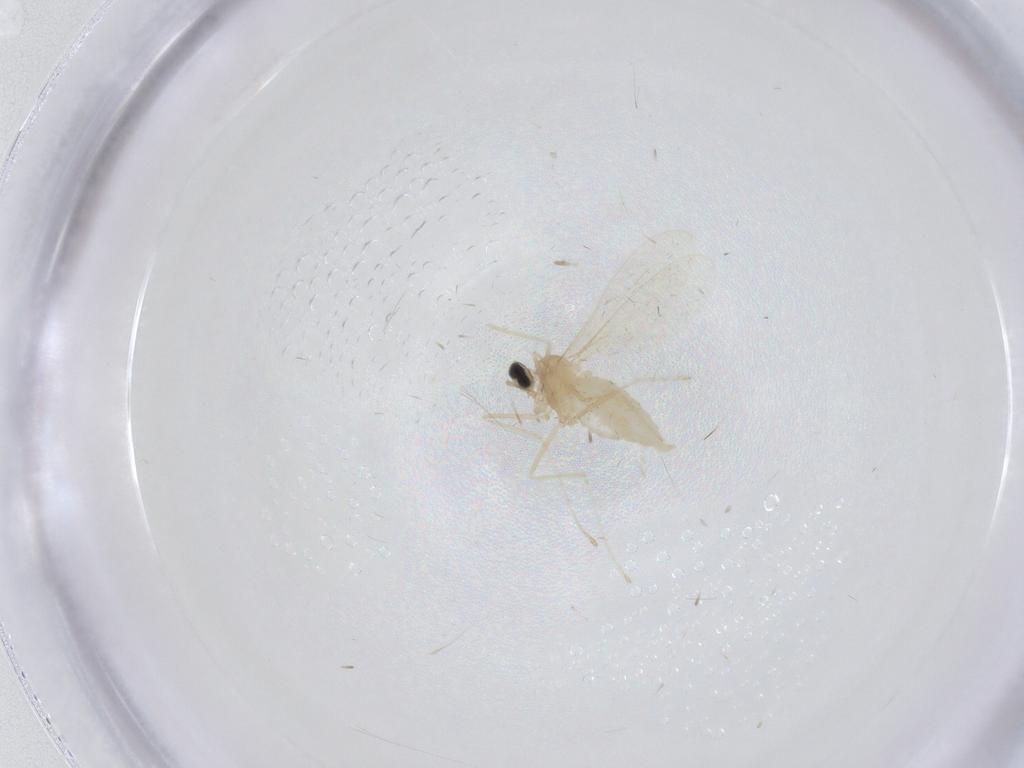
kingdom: Animalia
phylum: Arthropoda
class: Insecta
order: Diptera
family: Cecidomyiidae
